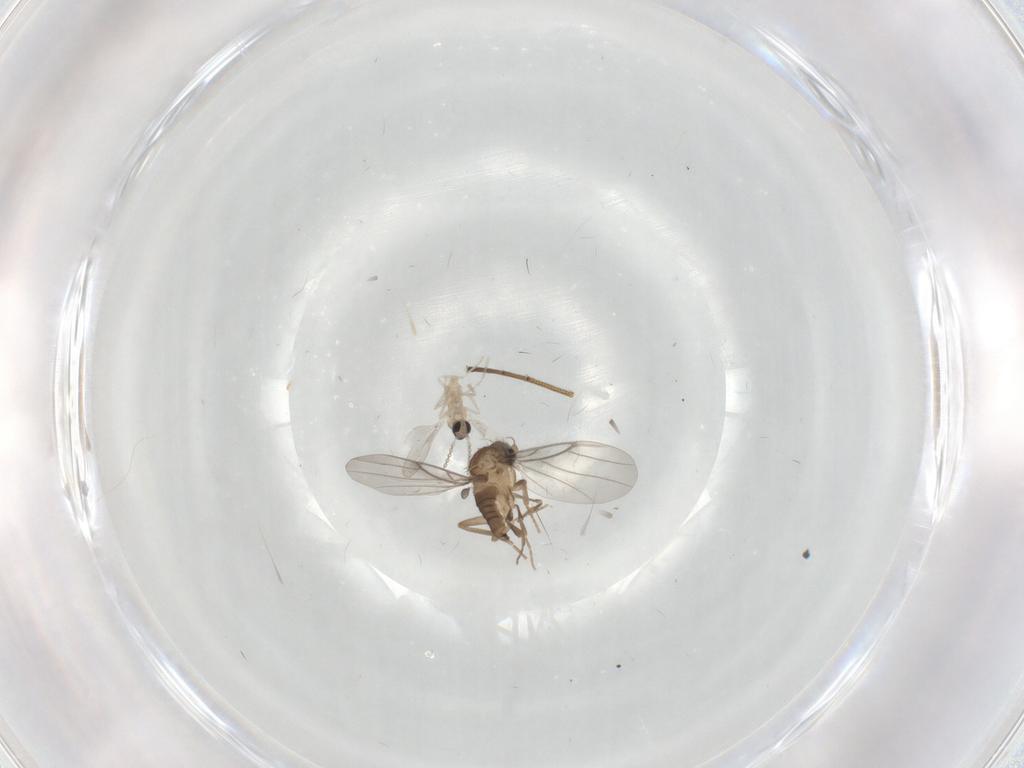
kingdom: Animalia
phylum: Arthropoda
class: Insecta
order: Diptera
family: Cecidomyiidae
